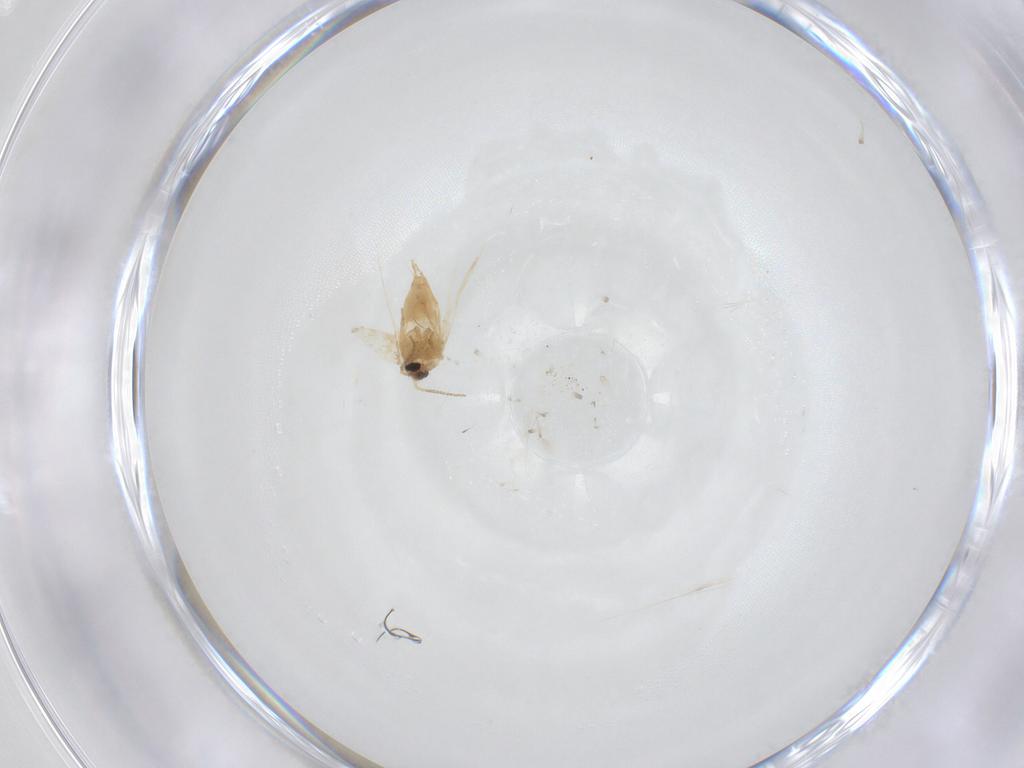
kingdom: Animalia
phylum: Arthropoda
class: Insecta
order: Lepidoptera
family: Crambidae
